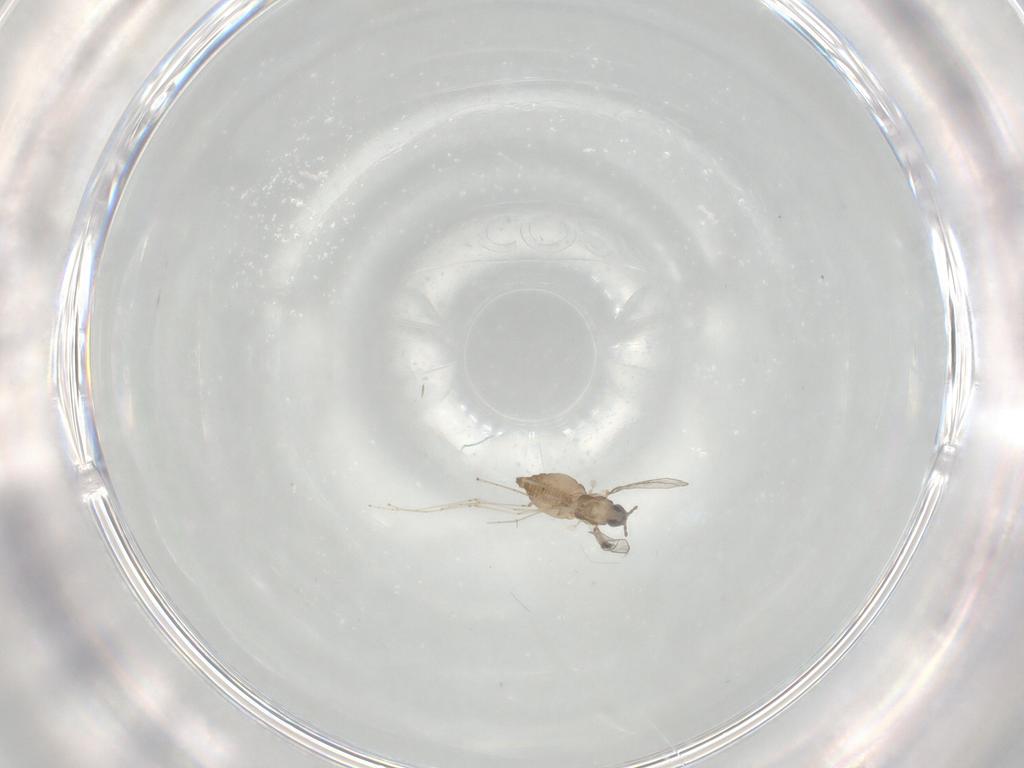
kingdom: Animalia
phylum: Arthropoda
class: Insecta
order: Diptera
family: Cecidomyiidae
